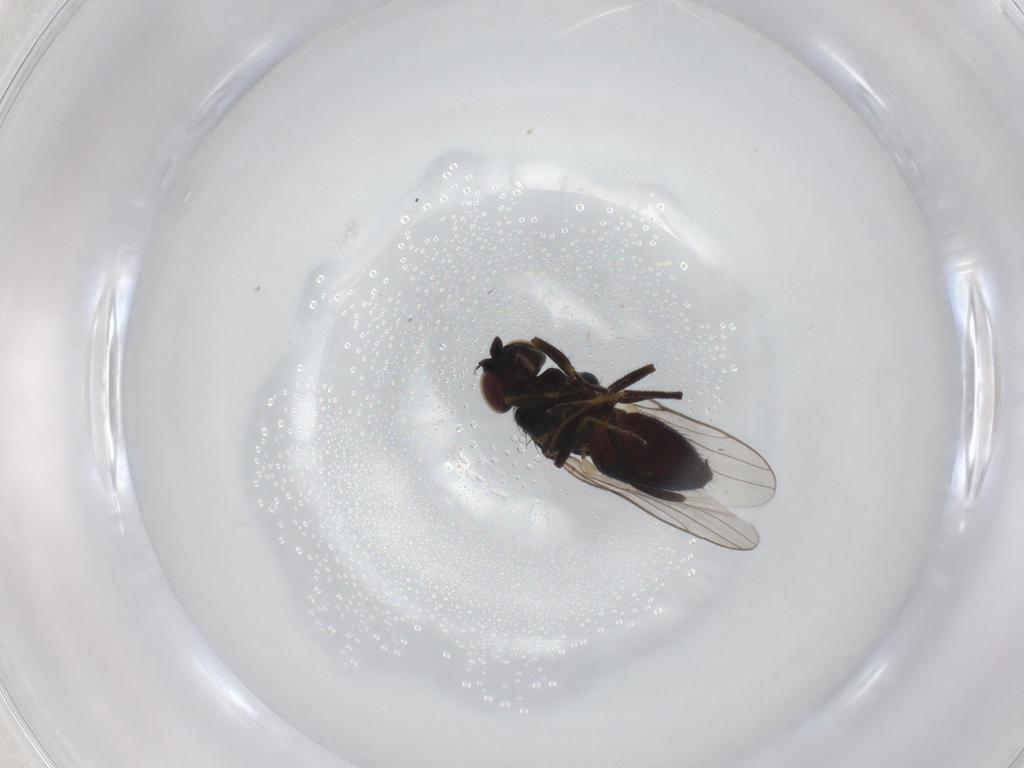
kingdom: Animalia
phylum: Arthropoda
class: Insecta
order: Diptera
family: Chloropidae
